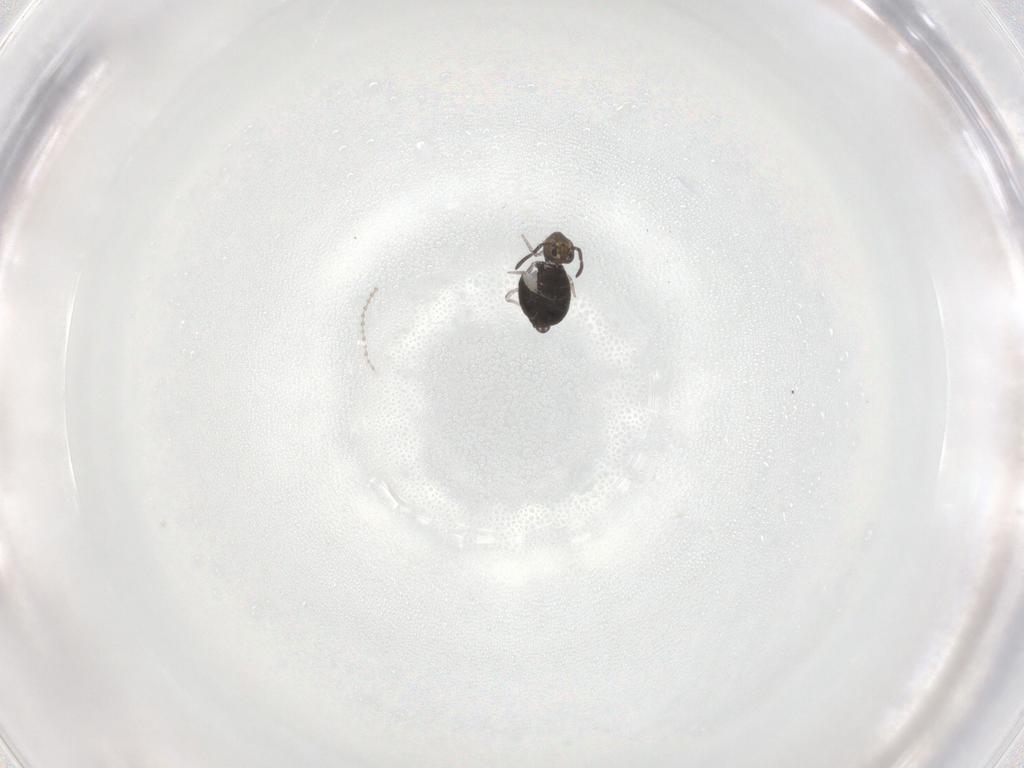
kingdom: Animalia
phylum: Arthropoda
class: Collembola
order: Symphypleona
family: Katiannidae
